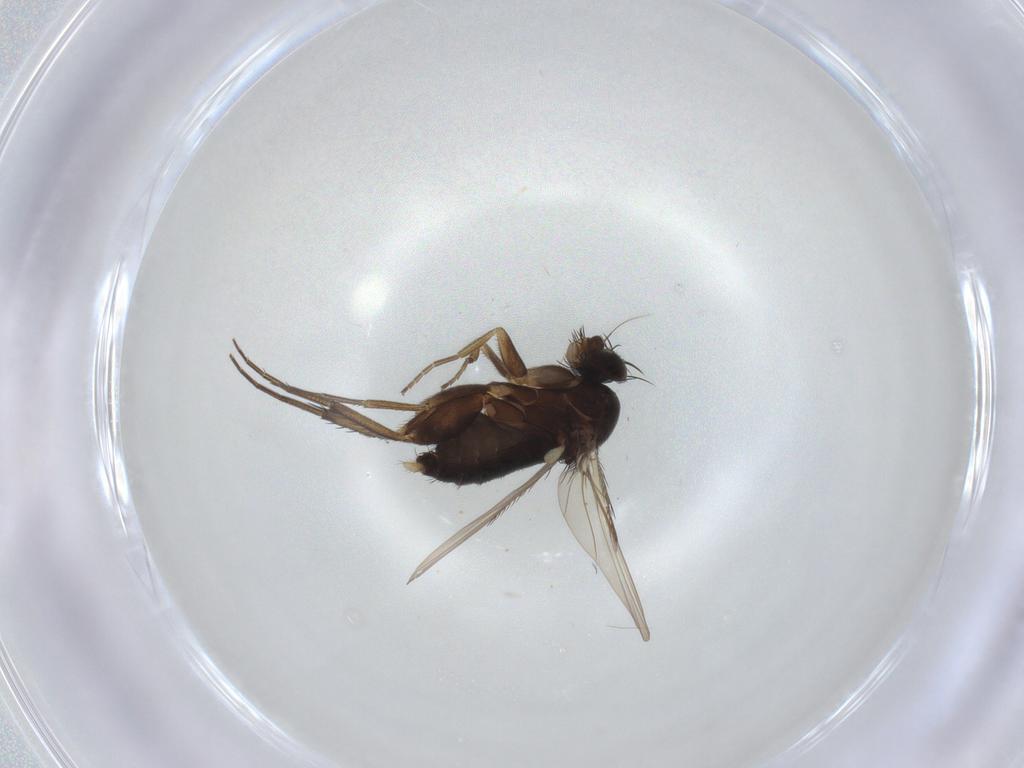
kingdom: Animalia
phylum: Arthropoda
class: Insecta
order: Diptera
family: Phoridae
